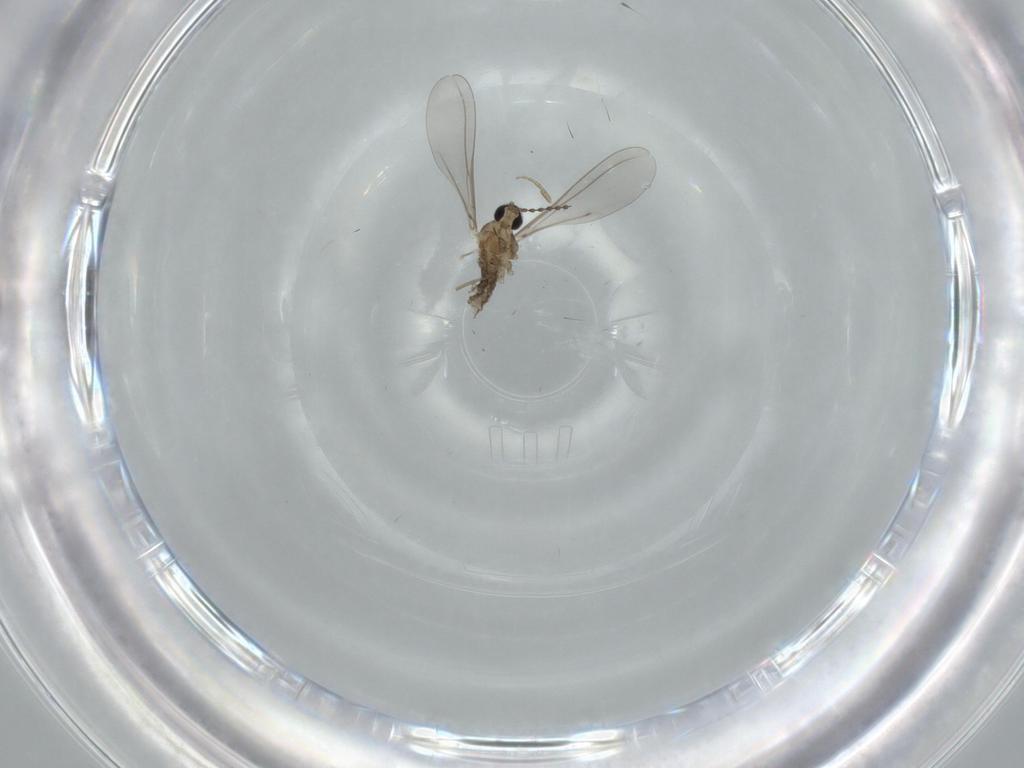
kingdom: Animalia
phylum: Arthropoda
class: Insecta
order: Diptera
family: Cecidomyiidae
